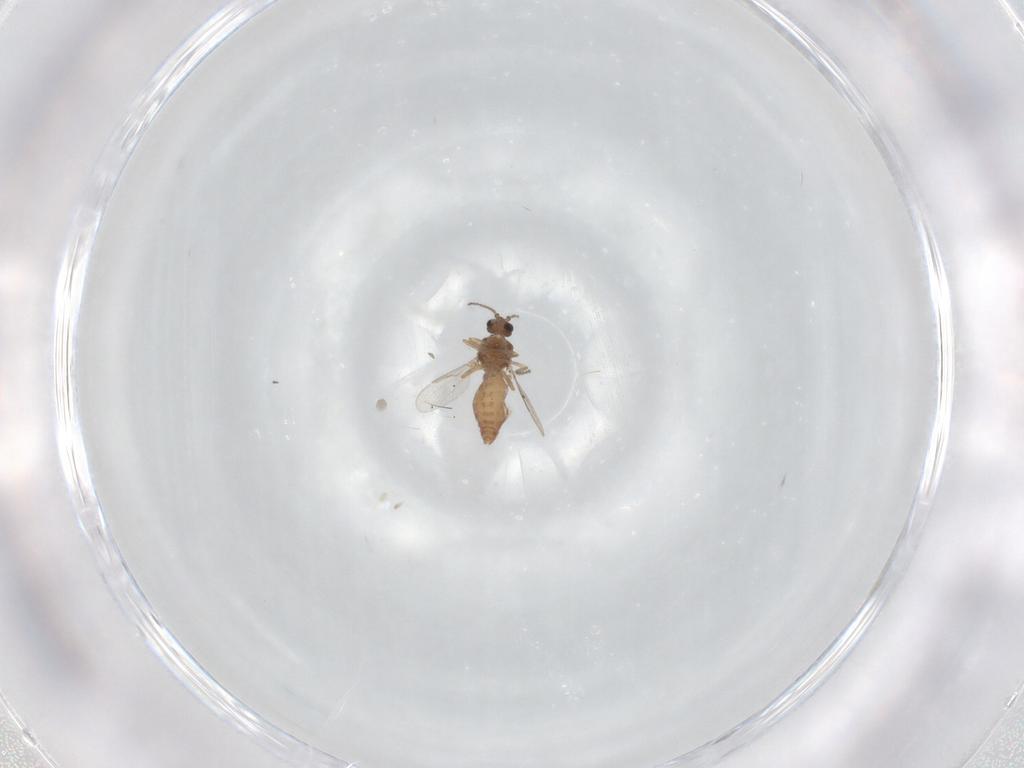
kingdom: Animalia
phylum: Arthropoda
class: Insecta
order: Diptera
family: Ceratopogonidae
